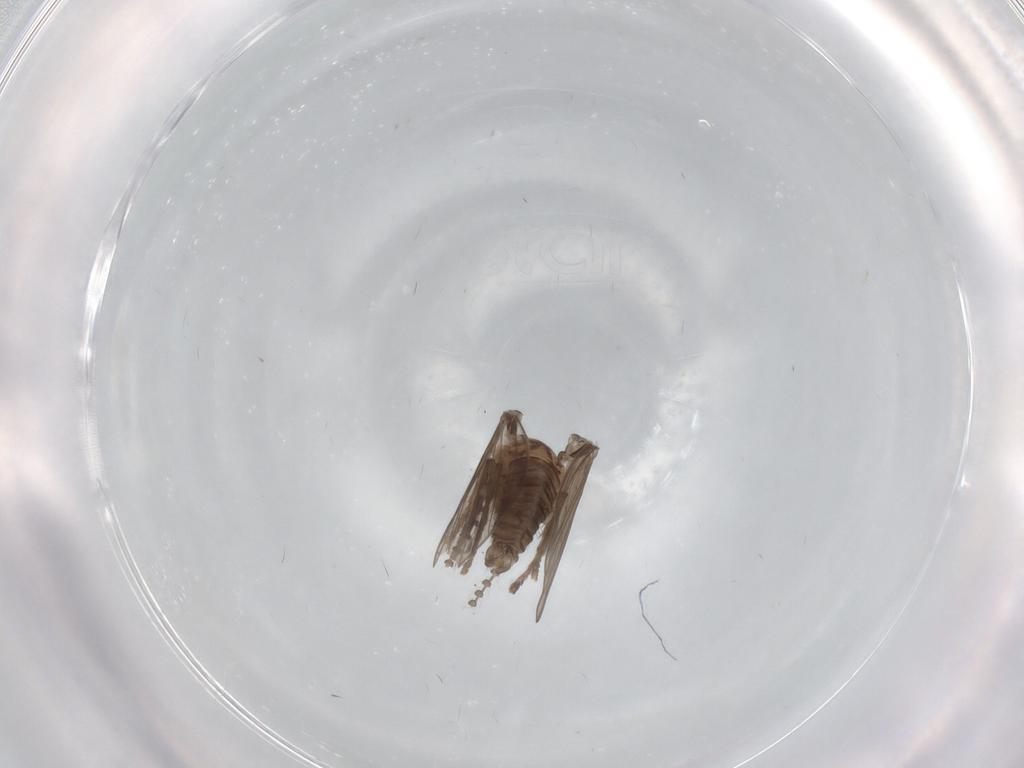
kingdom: Animalia
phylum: Arthropoda
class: Insecta
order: Diptera
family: Psychodidae
